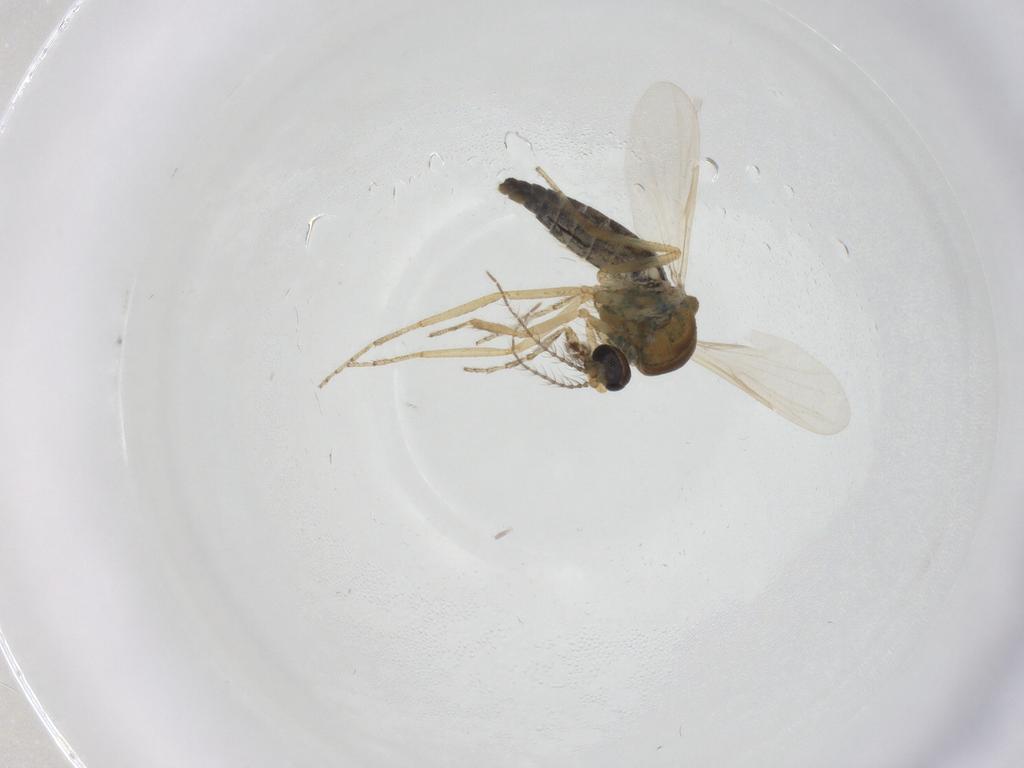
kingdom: Animalia
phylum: Arthropoda
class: Insecta
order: Diptera
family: Ceratopogonidae
